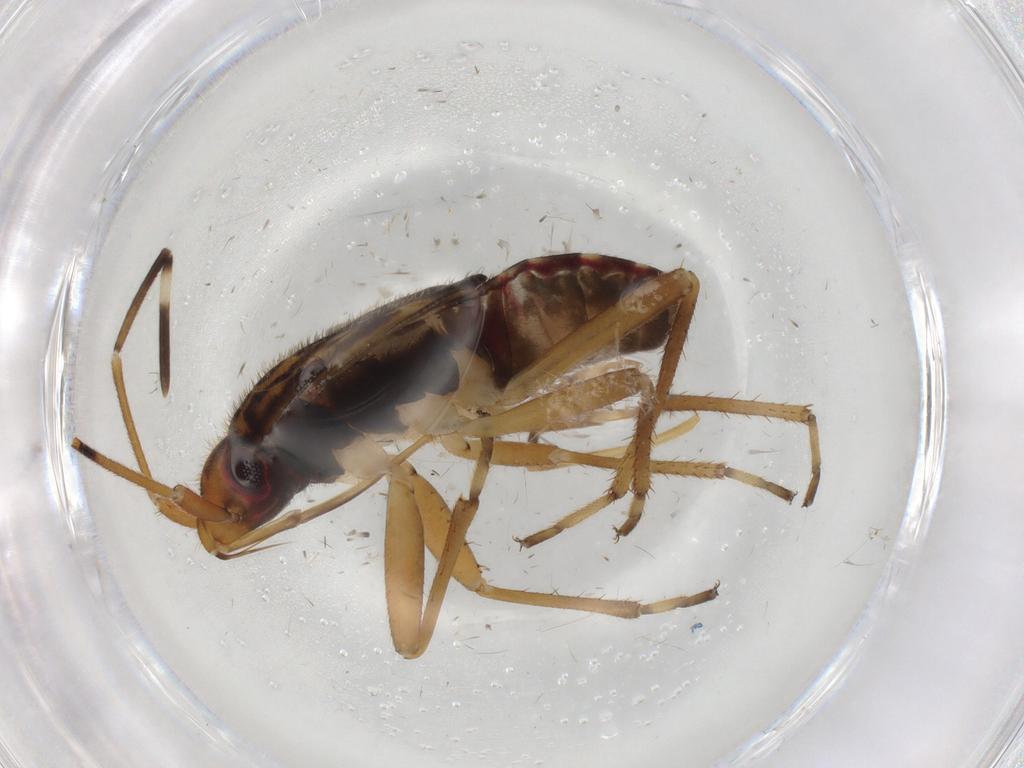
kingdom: Animalia
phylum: Arthropoda
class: Insecta
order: Hemiptera
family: Rhyparochromidae
